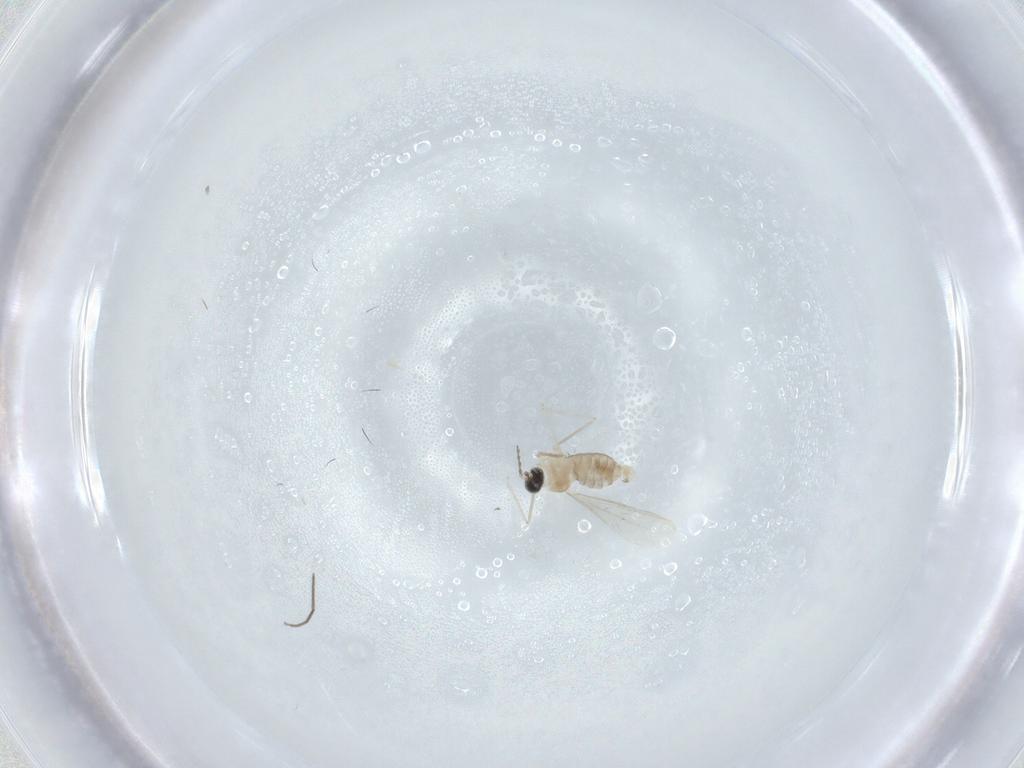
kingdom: Animalia
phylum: Arthropoda
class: Insecta
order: Diptera
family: Cecidomyiidae
